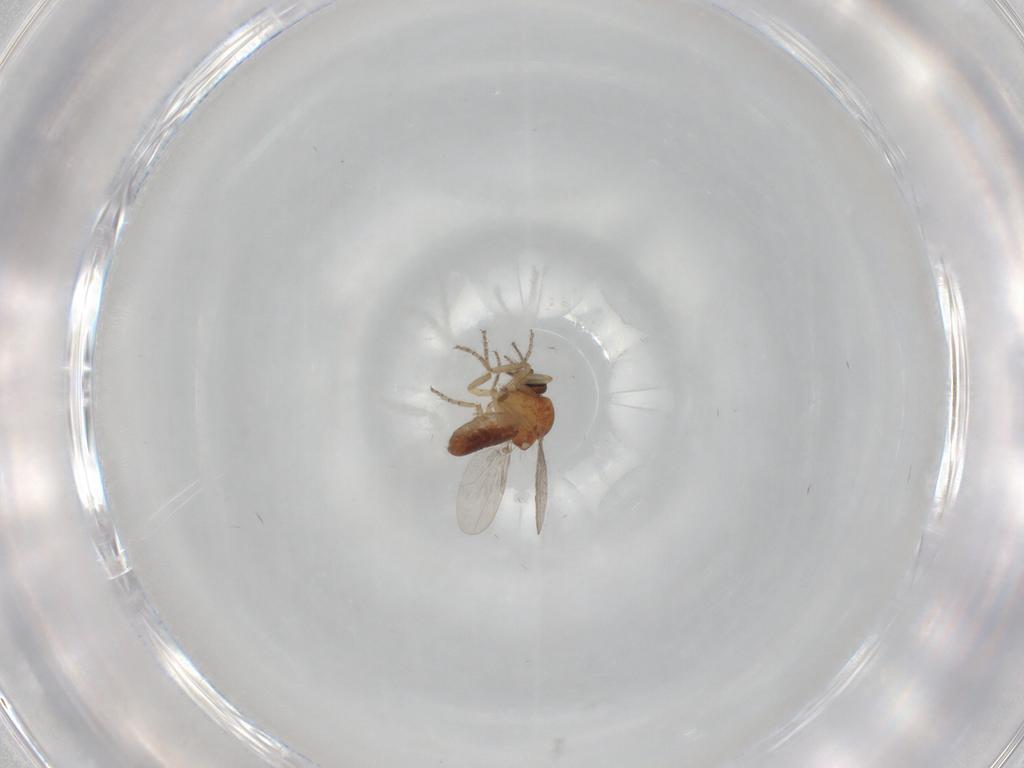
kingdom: Animalia
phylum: Arthropoda
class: Insecta
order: Diptera
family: Ceratopogonidae
